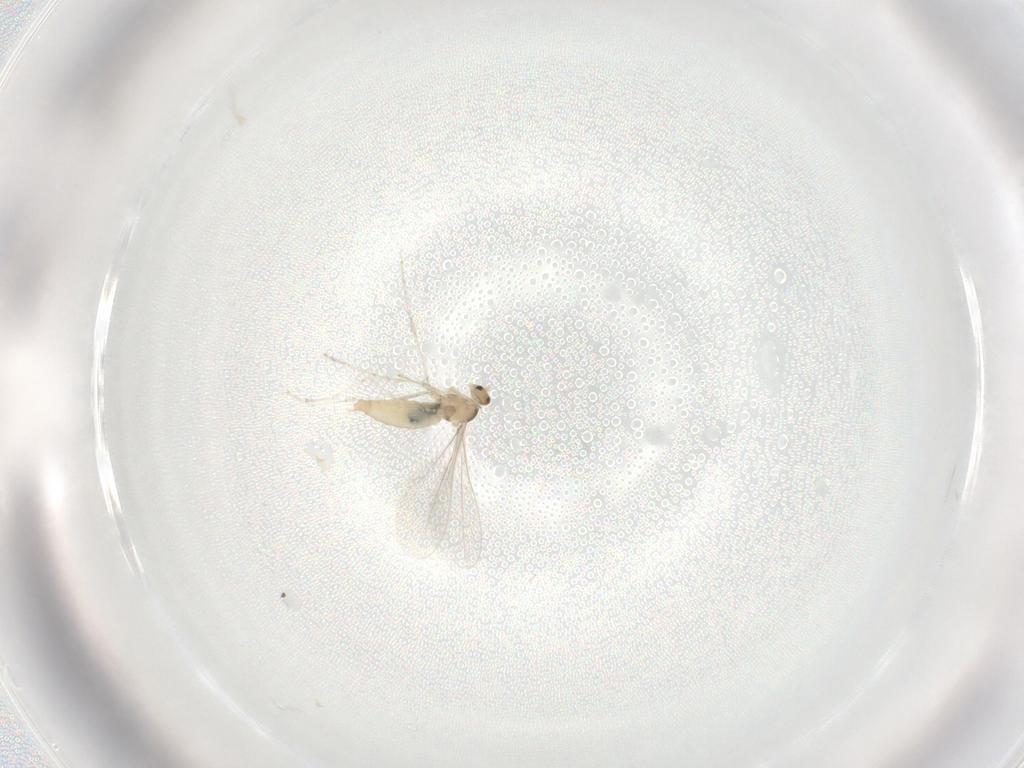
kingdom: Animalia
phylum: Arthropoda
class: Insecta
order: Diptera
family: Cecidomyiidae
